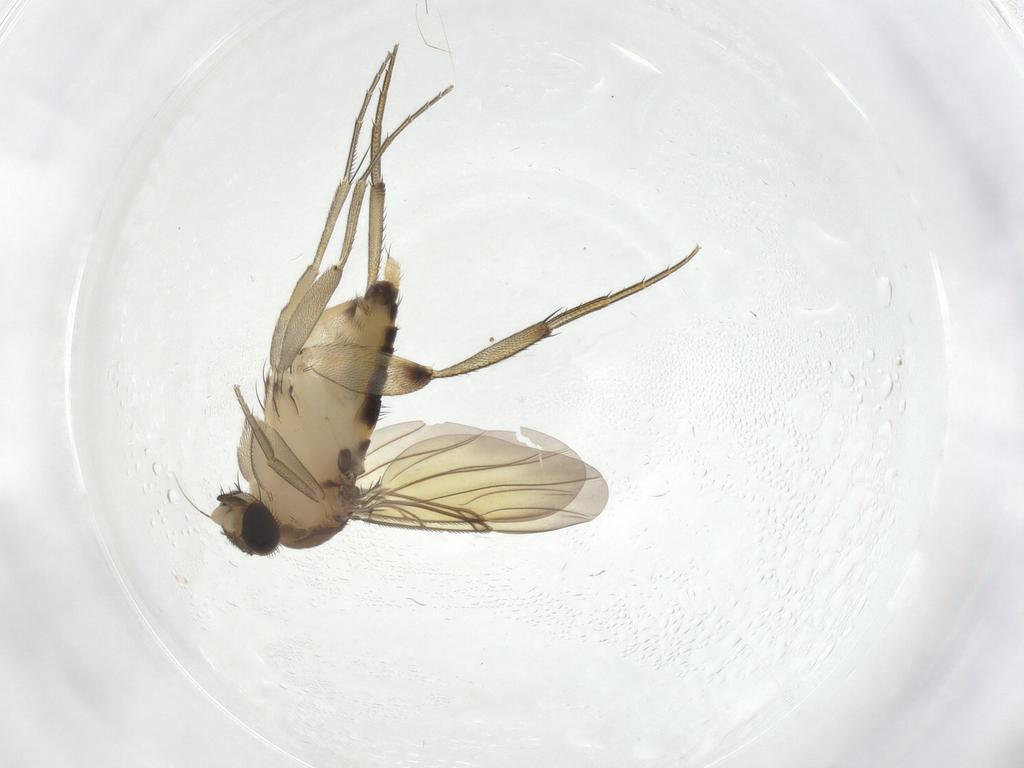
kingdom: Animalia
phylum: Arthropoda
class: Insecta
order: Diptera
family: Phoridae
